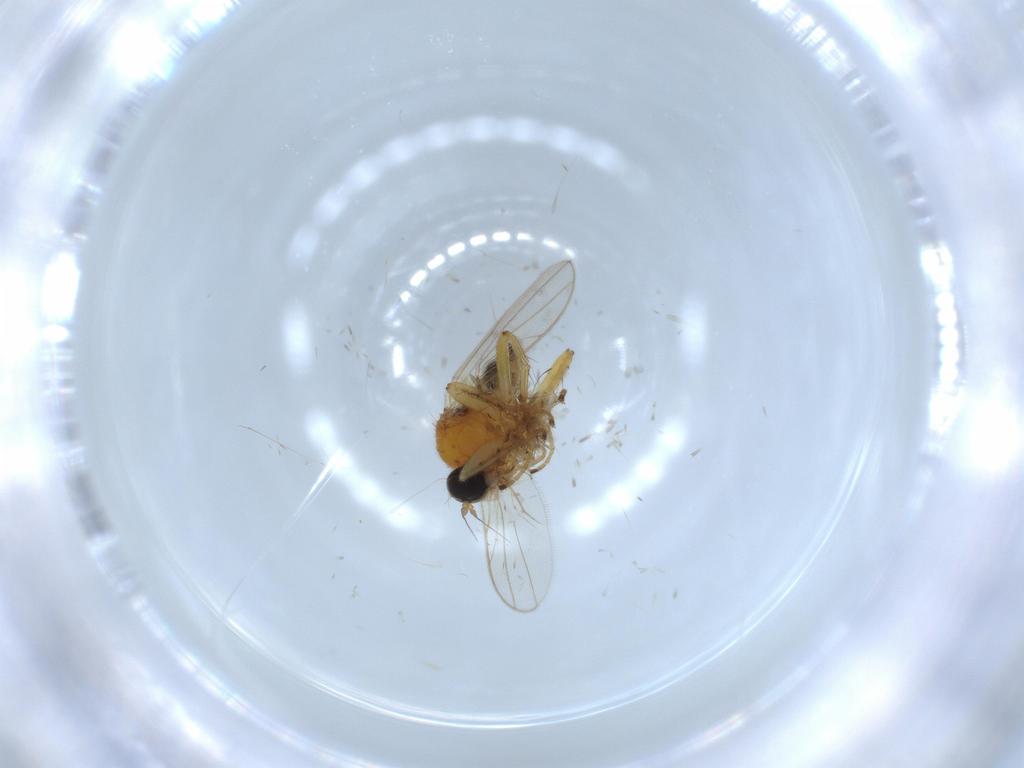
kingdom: Animalia
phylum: Arthropoda
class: Insecta
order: Diptera
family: Hybotidae
